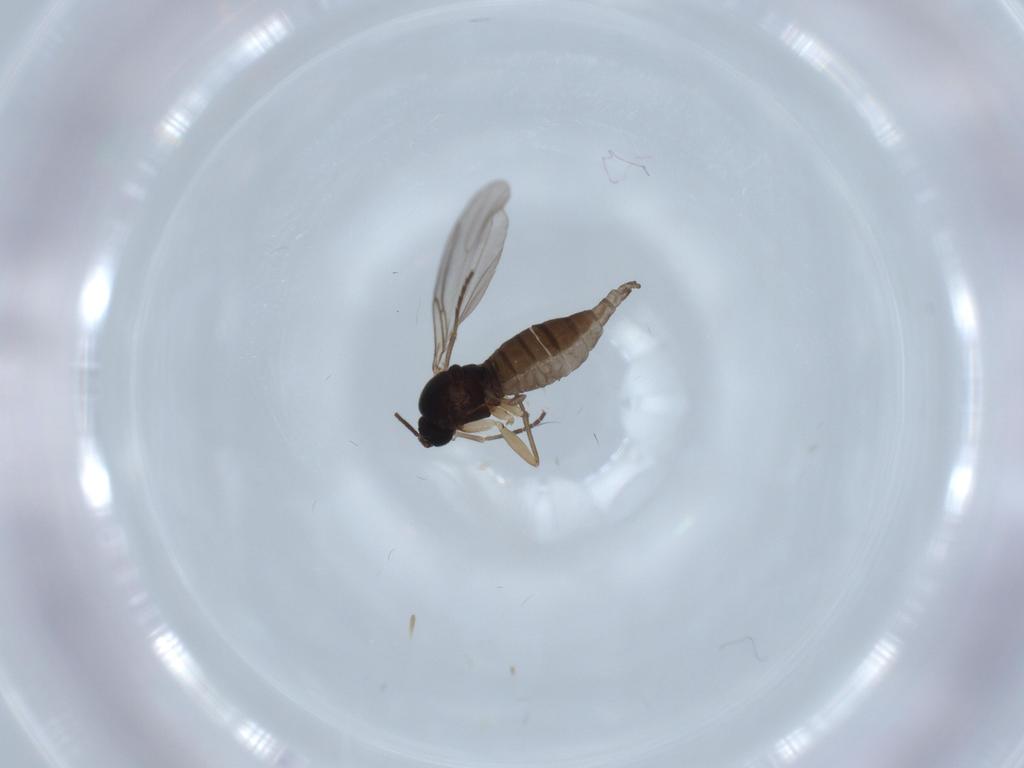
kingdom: Animalia
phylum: Arthropoda
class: Insecta
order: Diptera
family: Sciaridae
